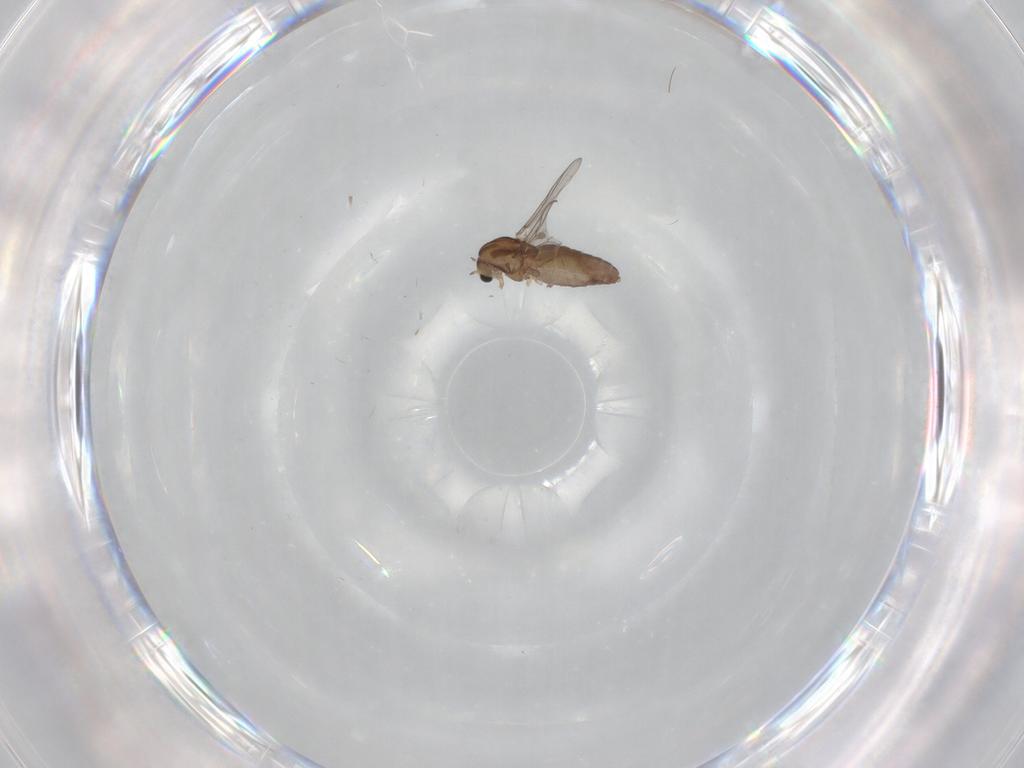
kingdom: Animalia
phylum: Arthropoda
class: Insecta
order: Diptera
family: Chironomidae
